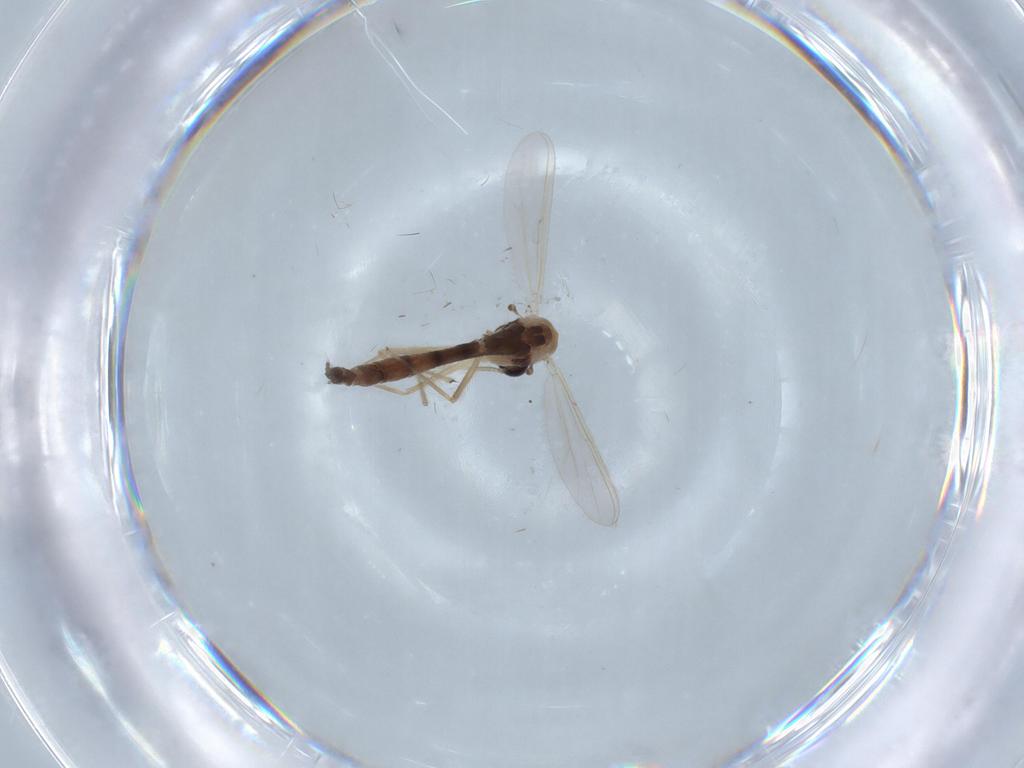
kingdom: Animalia
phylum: Arthropoda
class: Insecta
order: Diptera
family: Chironomidae
